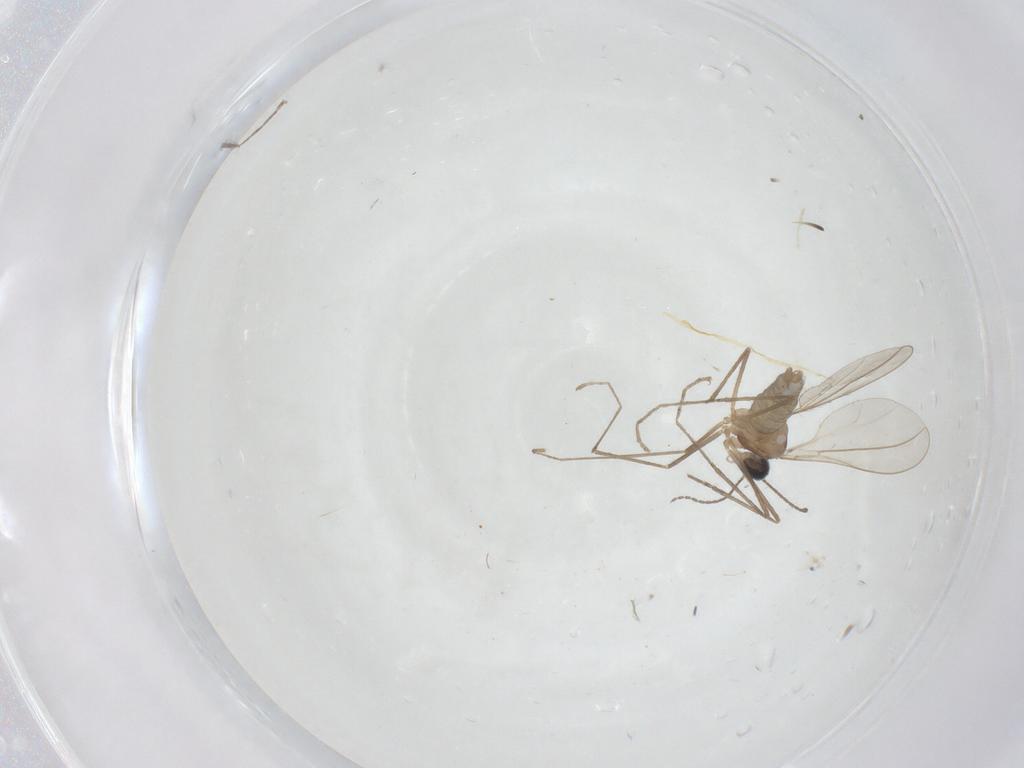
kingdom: Animalia
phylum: Arthropoda
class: Insecta
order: Diptera
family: Cecidomyiidae
